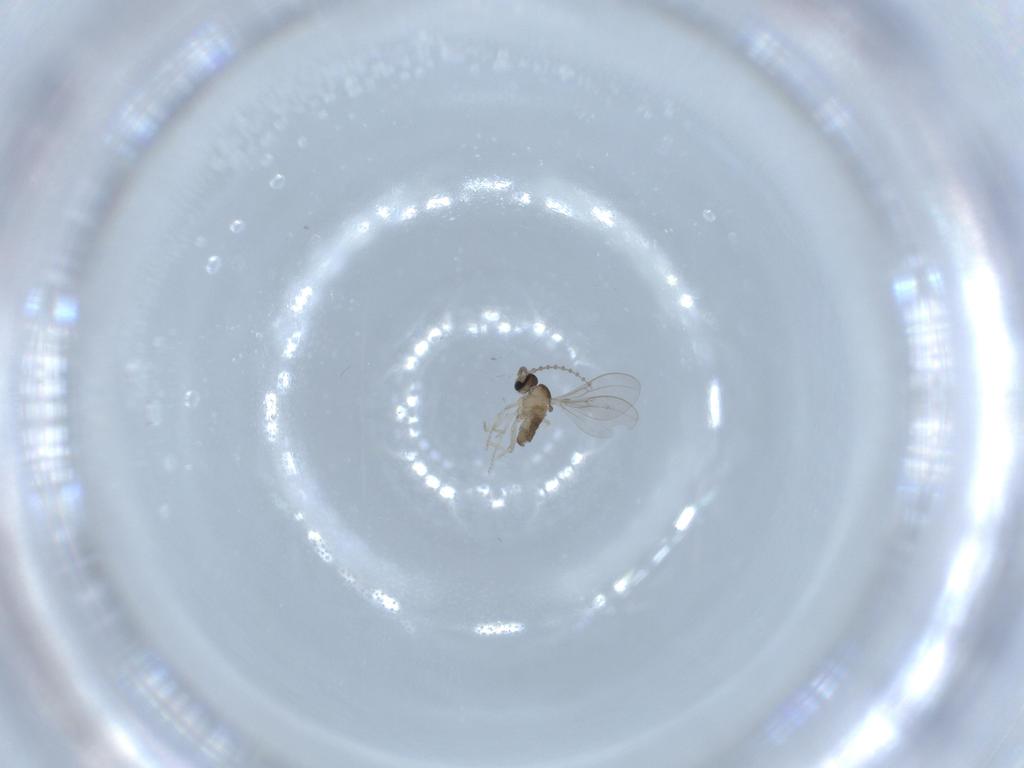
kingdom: Animalia
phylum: Arthropoda
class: Insecta
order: Diptera
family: Cecidomyiidae
